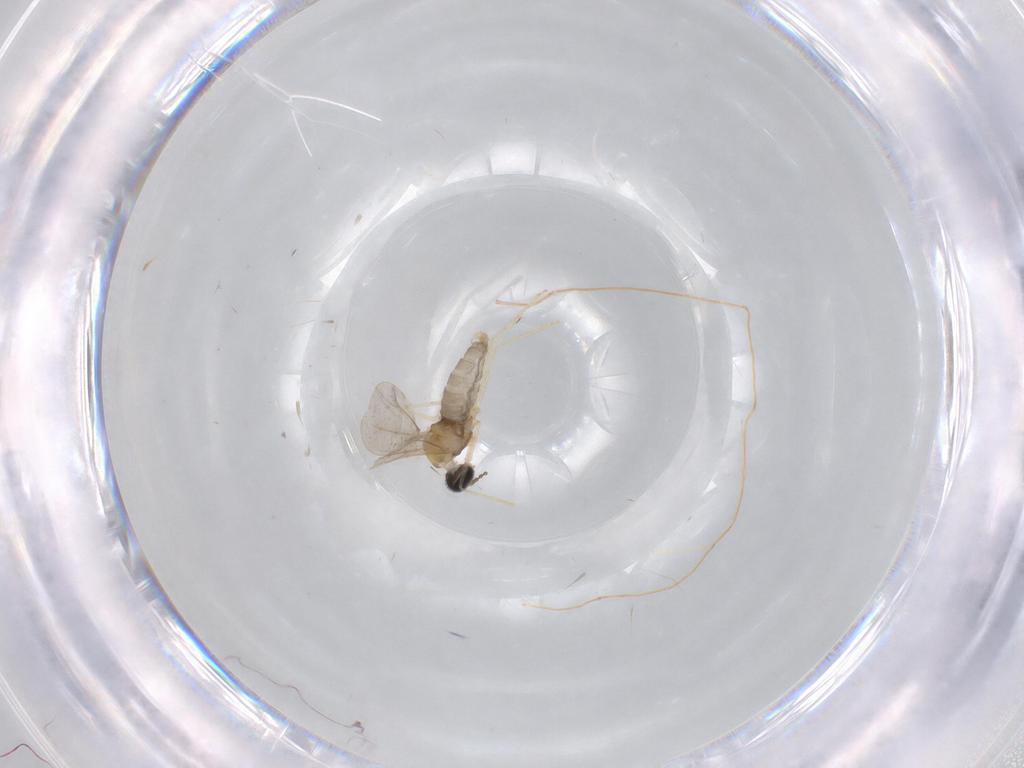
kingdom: Animalia
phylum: Arthropoda
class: Insecta
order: Diptera
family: Cecidomyiidae
